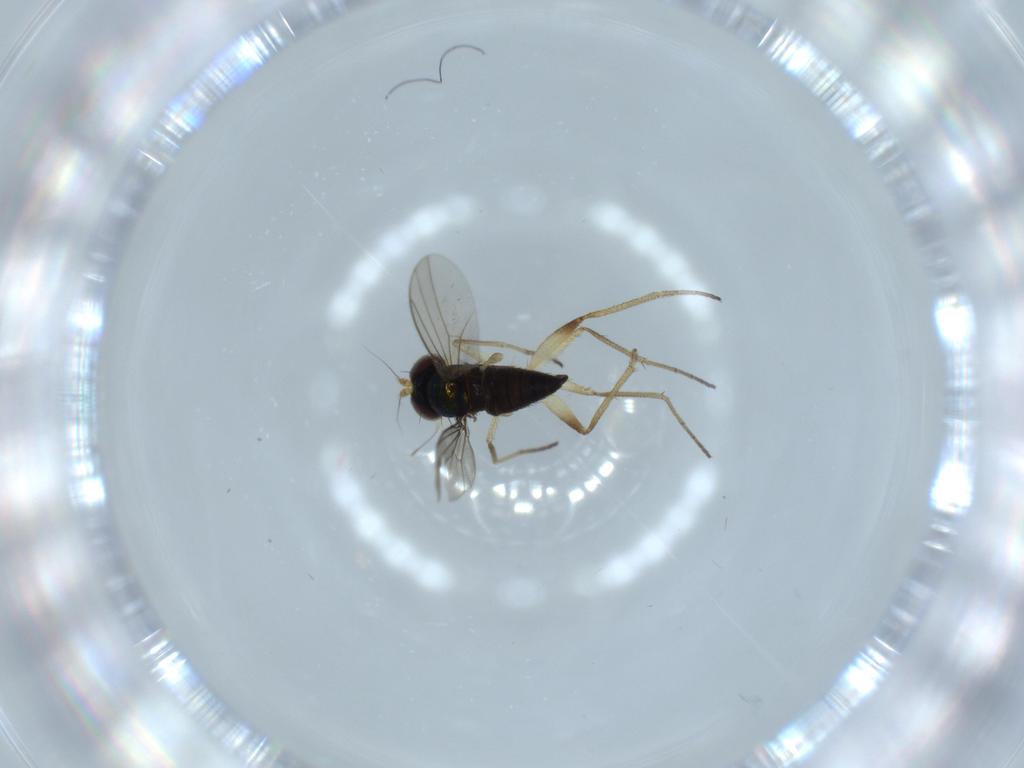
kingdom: Animalia
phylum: Arthropoda
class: Insecta
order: Diptera
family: Dolichopodidae
